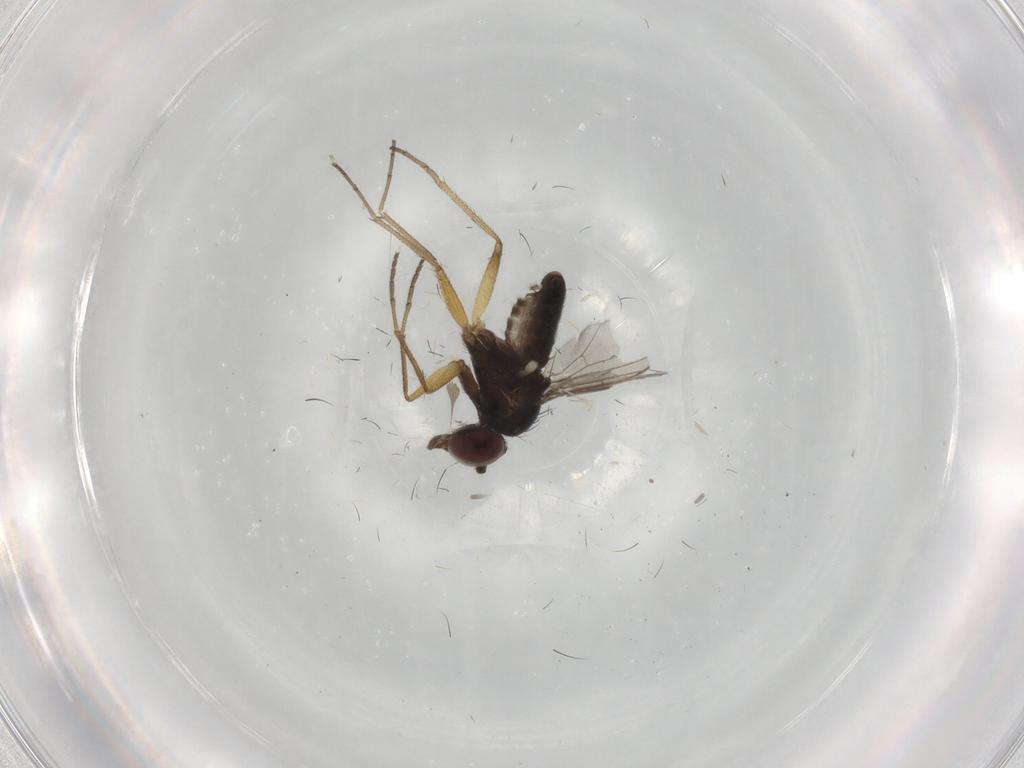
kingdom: Animalia
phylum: Arthropoda
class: Insecta
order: Diptera
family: Dolichopodidae
